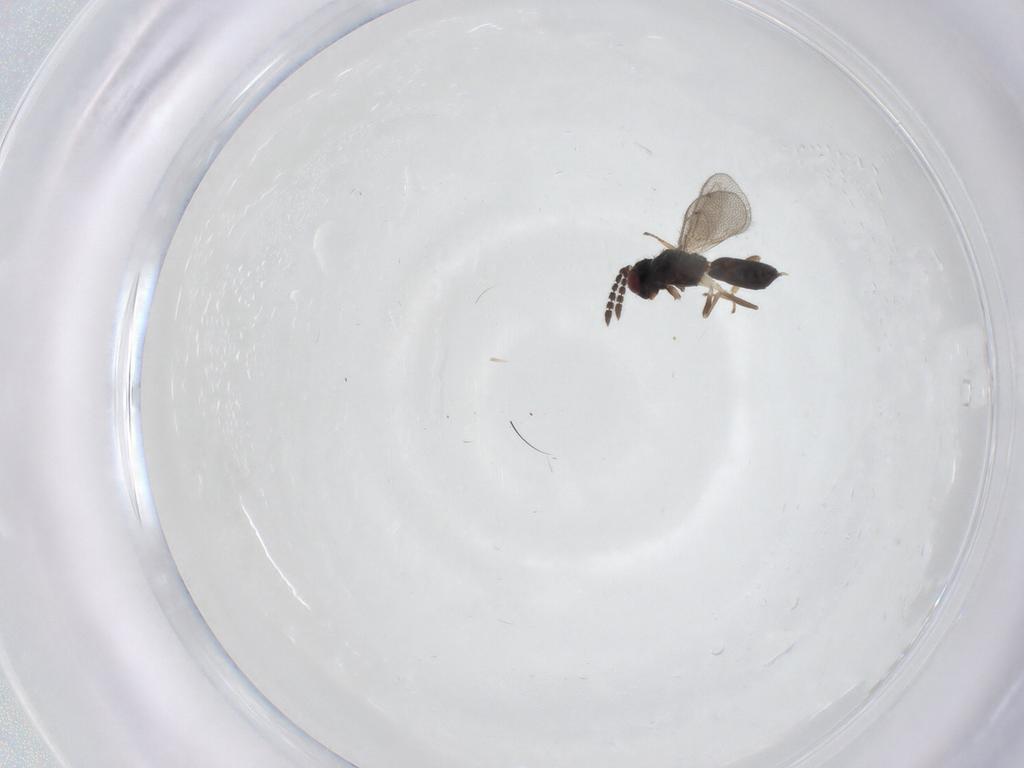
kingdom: Animalia
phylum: Arthropoda
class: Insecta
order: Hymenoptera
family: Eulophidae
